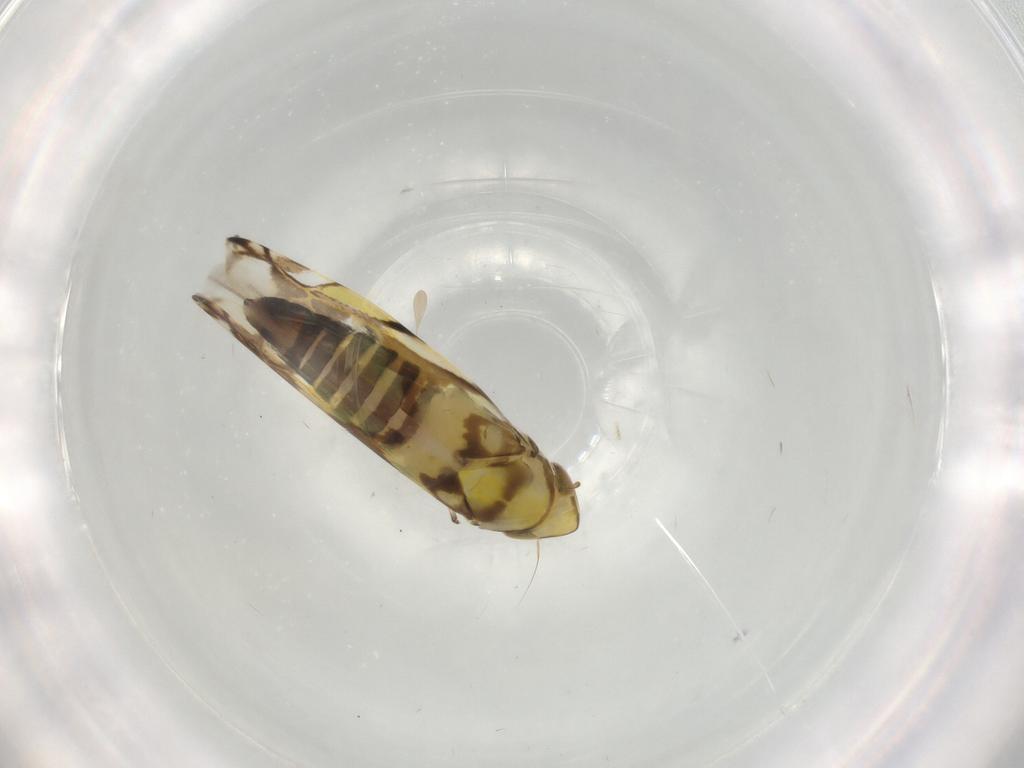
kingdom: Animalia
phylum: Arthropoda
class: Insecta
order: Hemiptera
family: Cicadellidae
